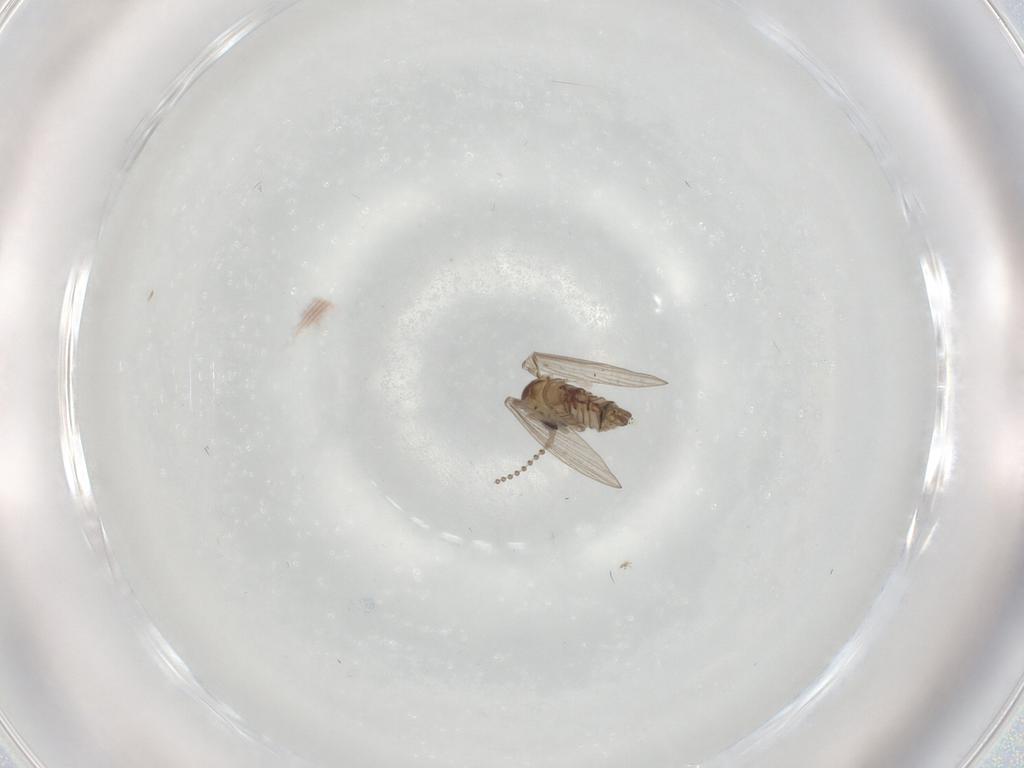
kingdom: Animalia
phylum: Arthropoda
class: Insecta
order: Diptera
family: Psychodidae
